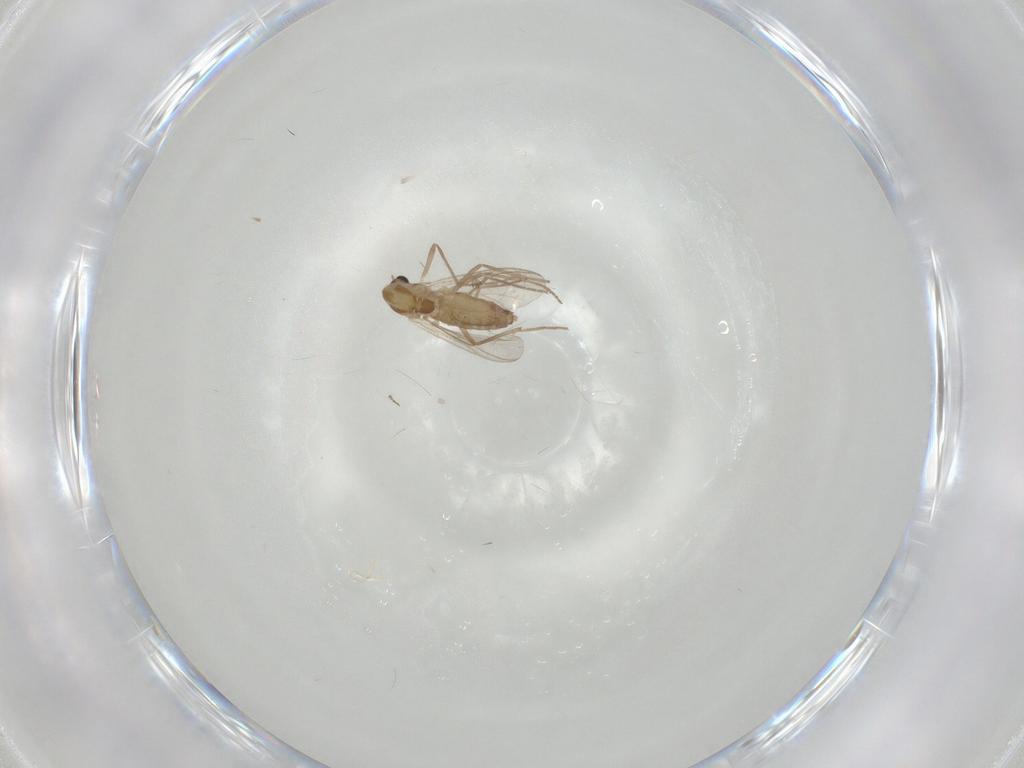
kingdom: Animalia
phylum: Arthropoda
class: Insecta
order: Diptera
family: Chironomidae
